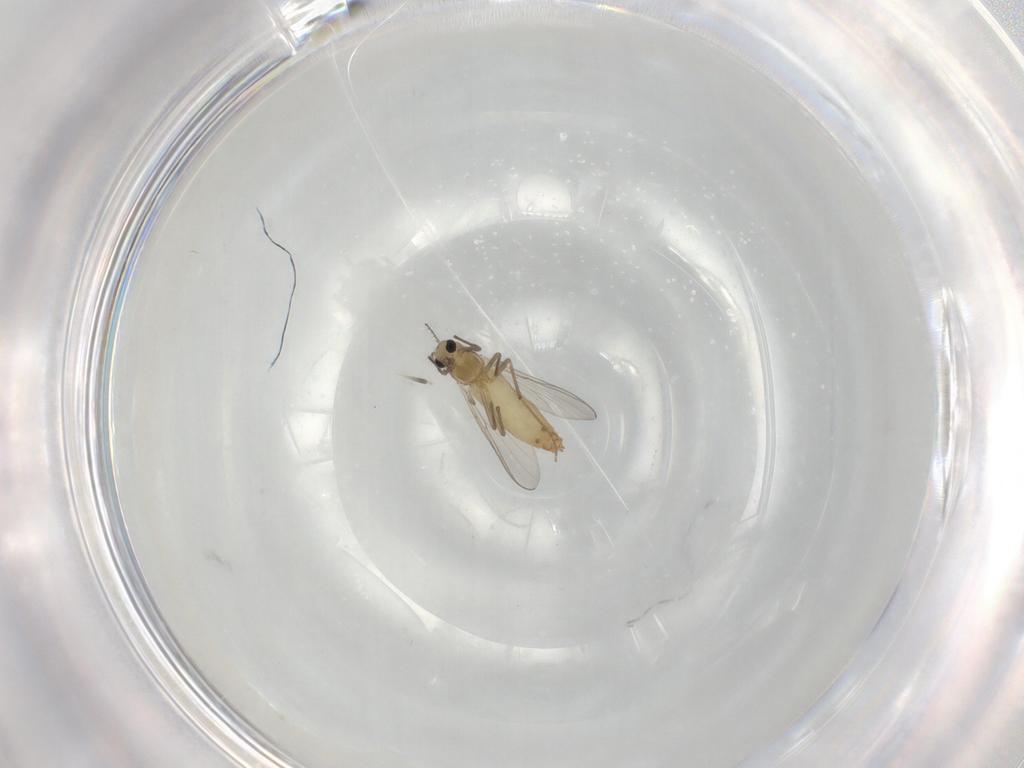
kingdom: Animalia
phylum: Arthropoda
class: Insecta
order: Diptera
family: Chironomidae
